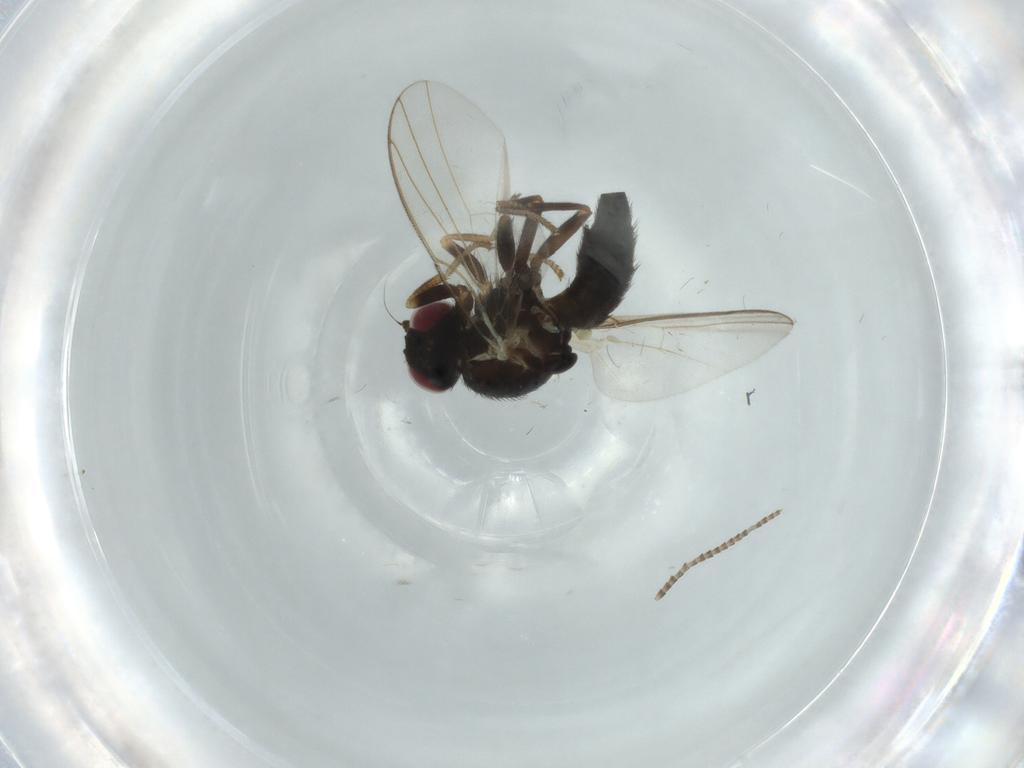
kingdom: Animalia
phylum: Arthropoda
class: Insecta
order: Diptera
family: Agromyzidae
